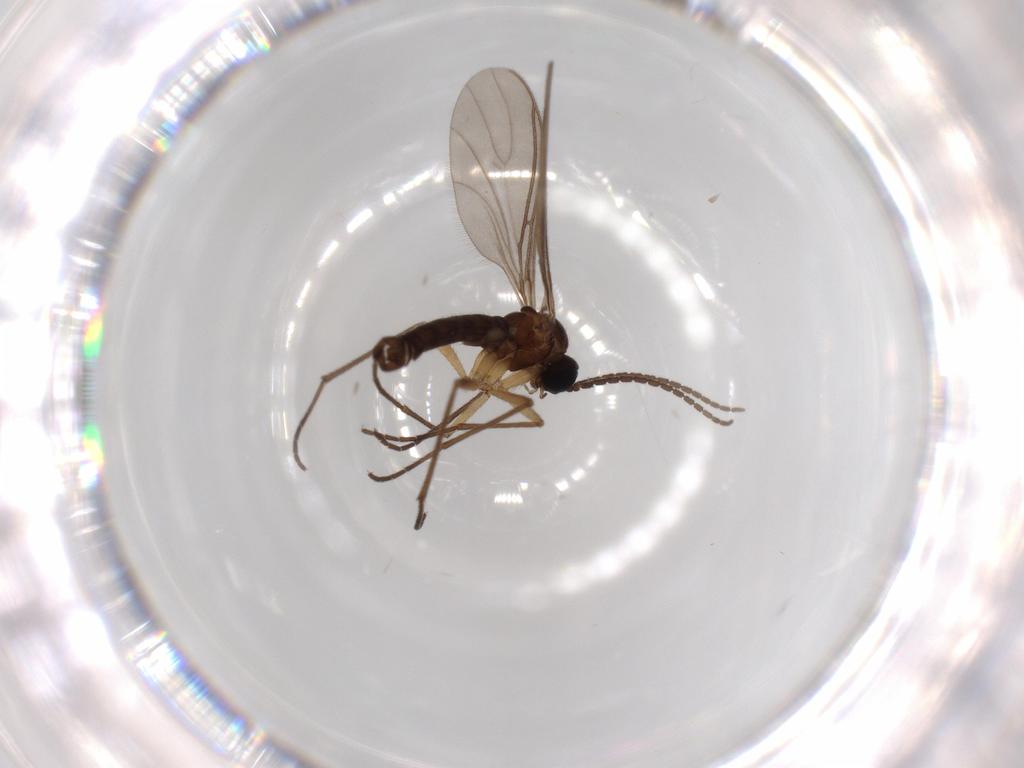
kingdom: Animalia
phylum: Arthropoda
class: Insecta
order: Diptera
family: Sciaridae
